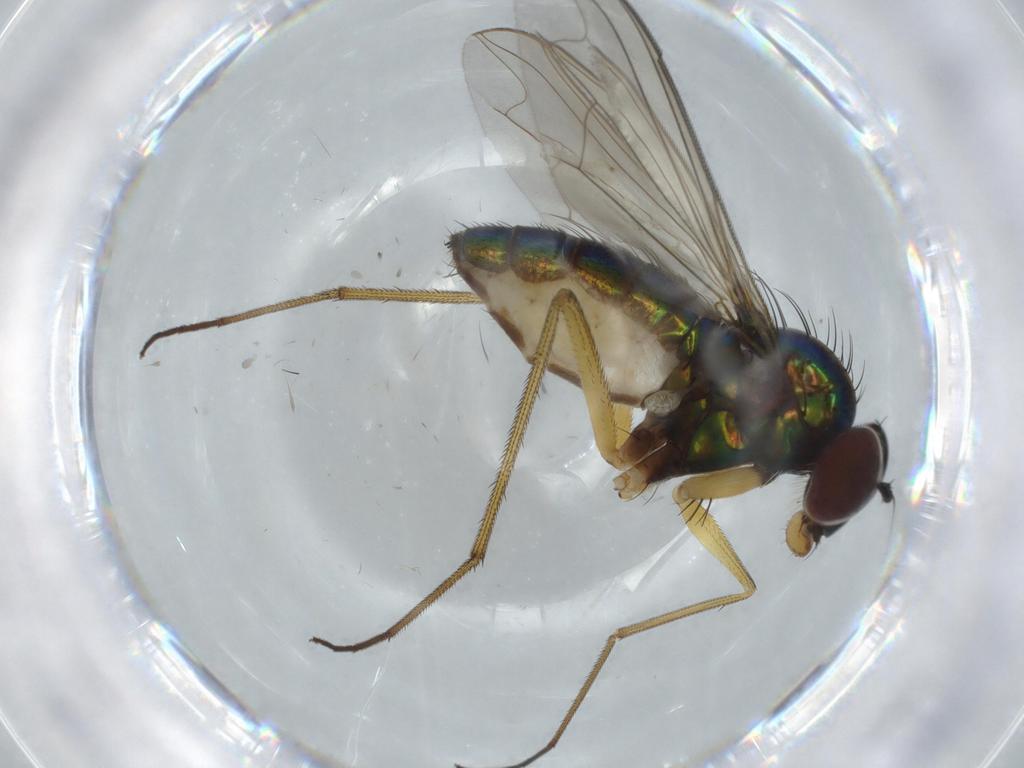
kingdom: Animalia
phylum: Arthropoda
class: Insecta
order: Diptera
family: Dolichopodidae
